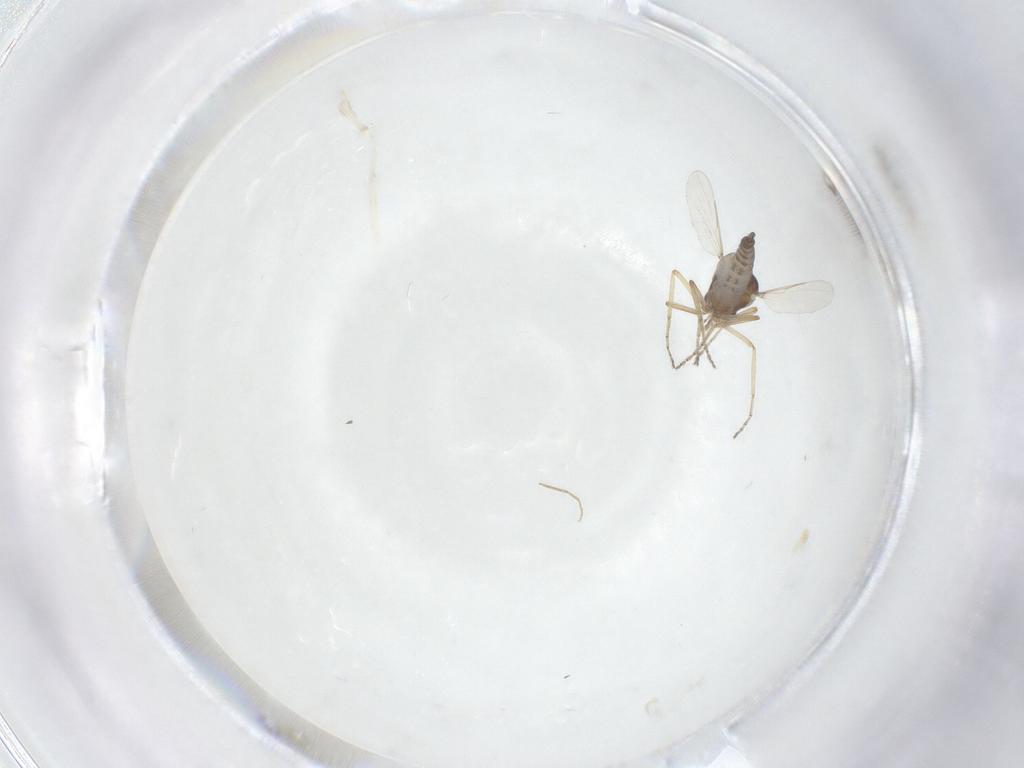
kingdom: Animalia
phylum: Arthropoda
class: Insecta
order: Diptera
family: Ceratopogonidae
